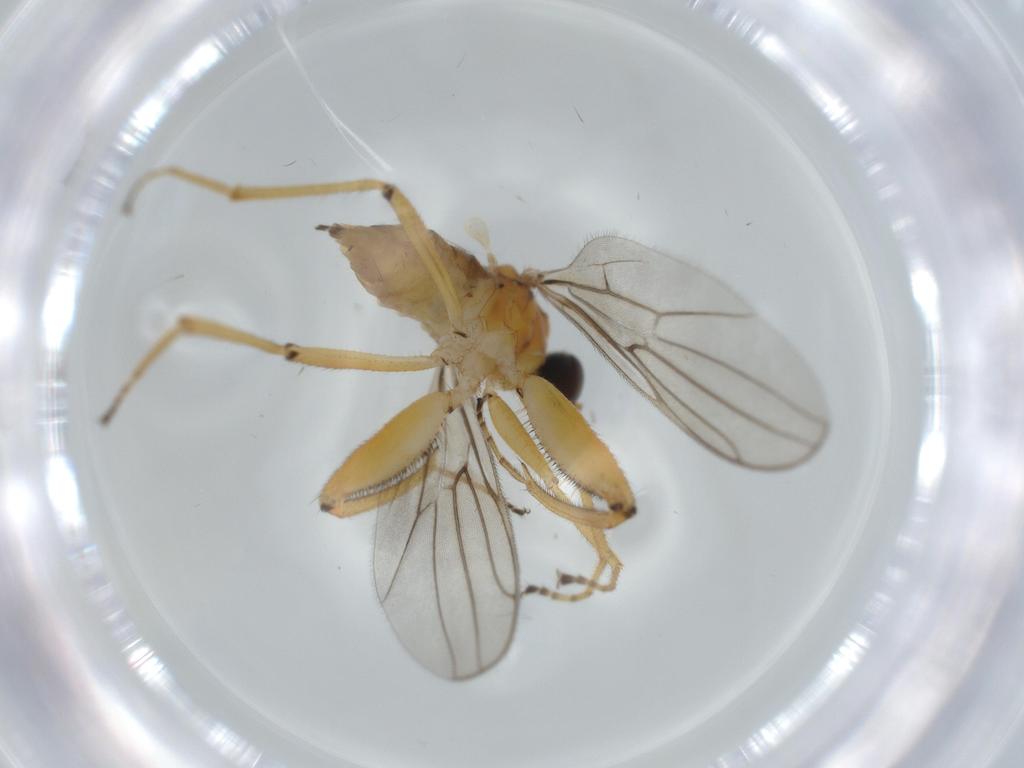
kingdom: Animalia
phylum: Arthropoda
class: Insecta
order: Diptera
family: Chironomidae
